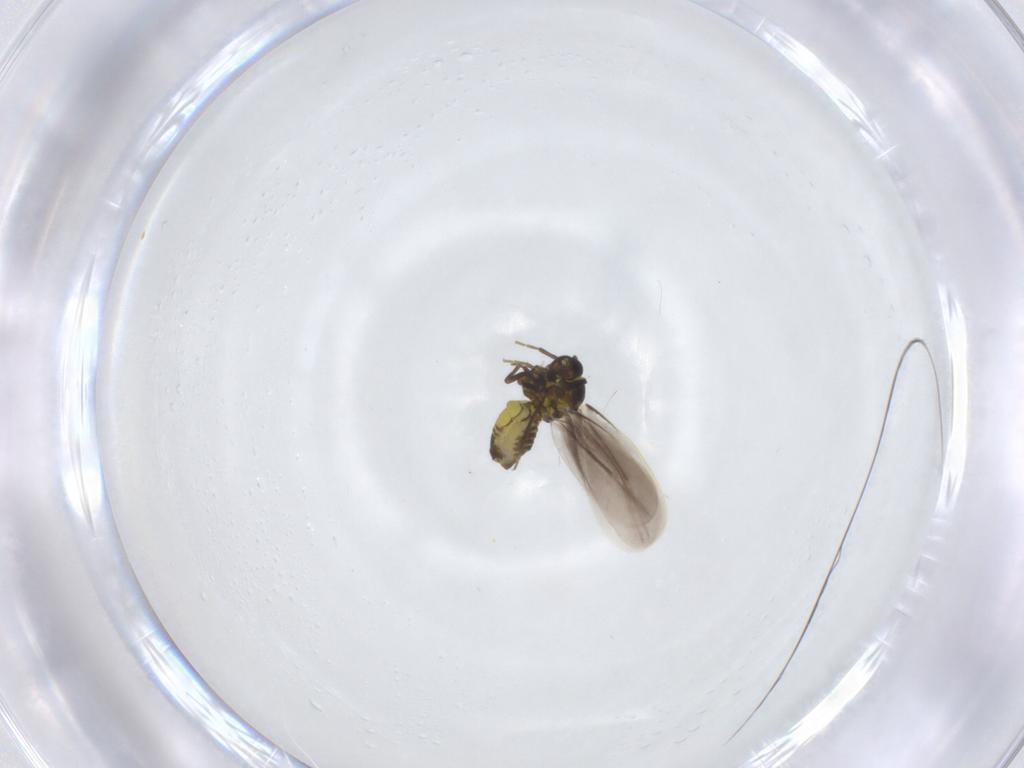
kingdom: Animalia
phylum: Arthropoda
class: Insecta
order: Hemiptera
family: Aleyrodidae
